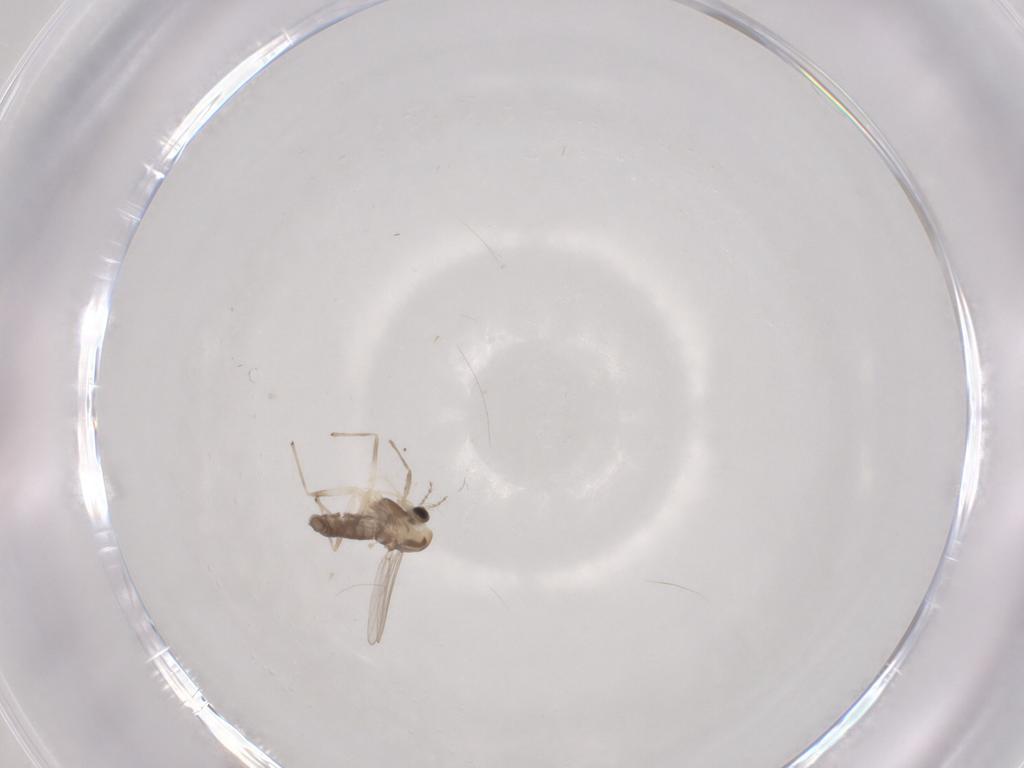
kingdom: Animalia
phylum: Arthropoda
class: Insecta
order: Diptera
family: Chironomidae
